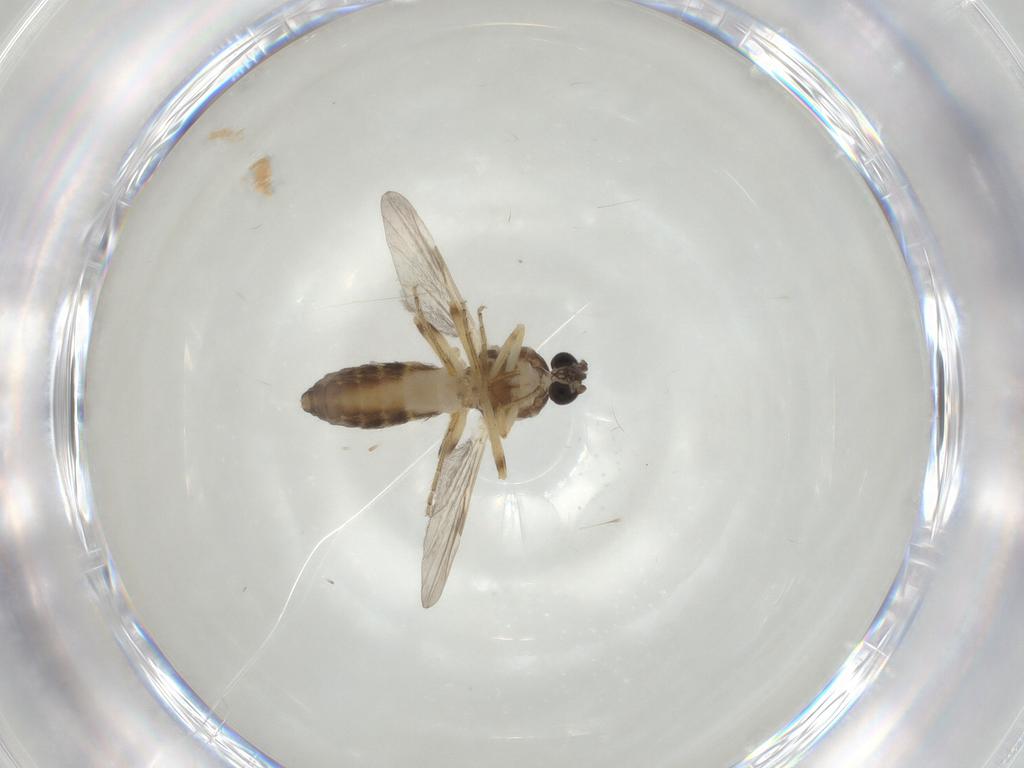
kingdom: Animalia
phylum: Arthropoda
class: Insecta
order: Diptera
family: Ceratopogonidae
